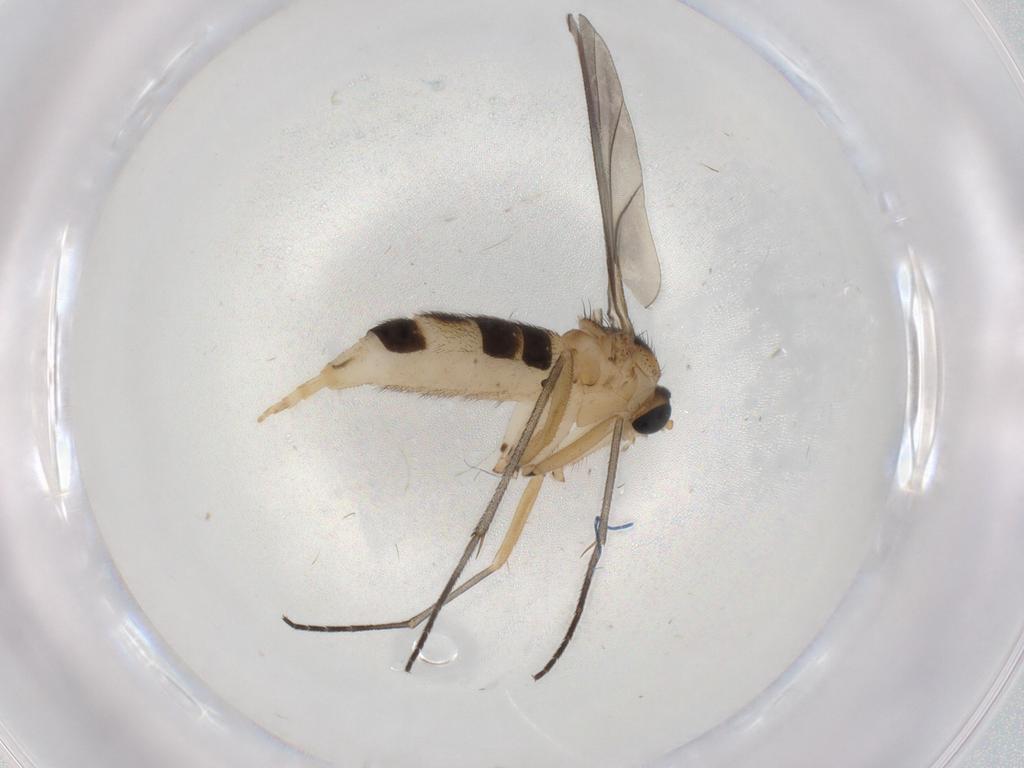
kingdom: Animalia
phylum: Arthropoda
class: Insecta
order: Diptera
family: Sciaridae
